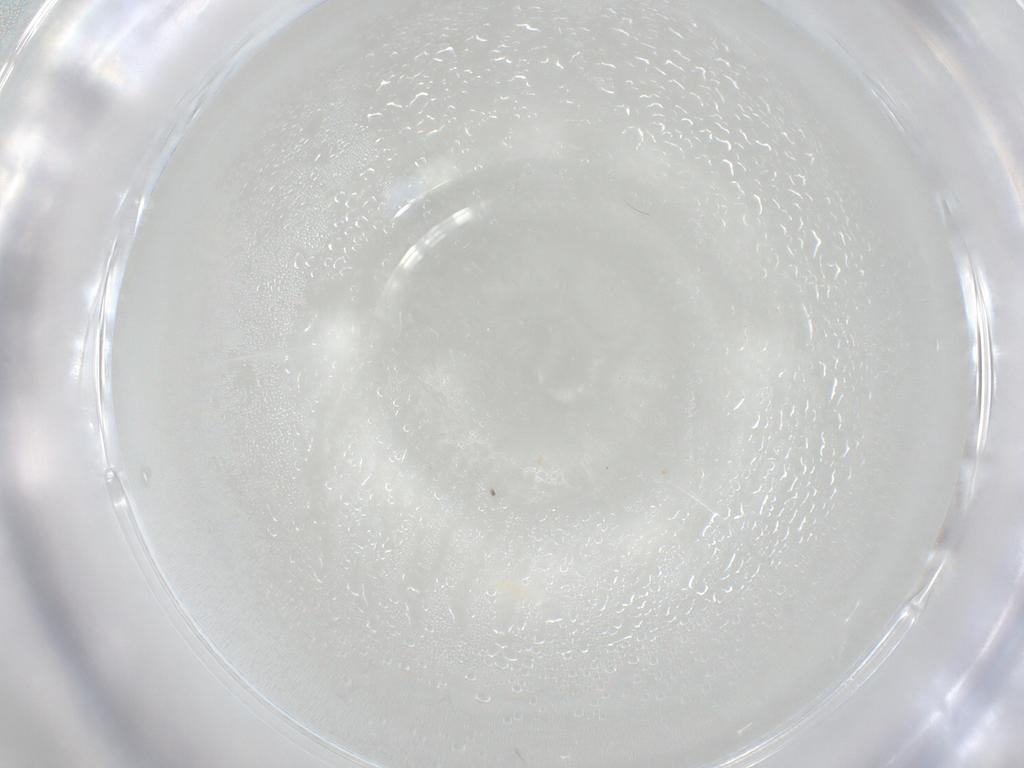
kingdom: Animalia
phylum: Arthropoda
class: Arachnida
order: Trombidiformes
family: Eupodidae
